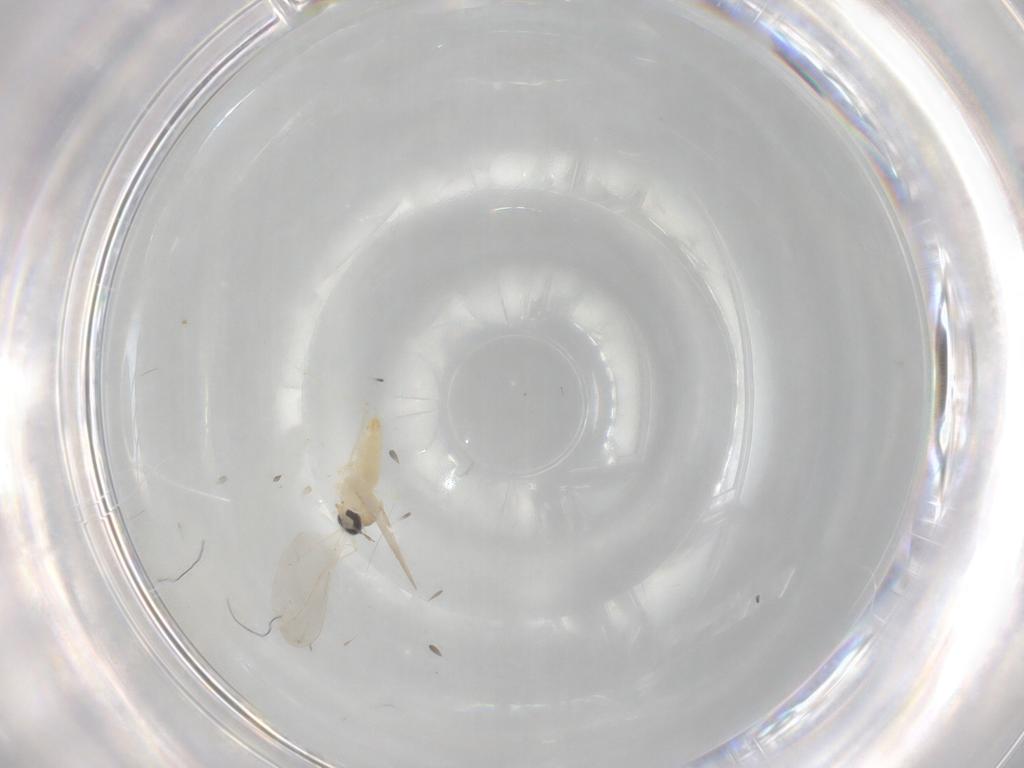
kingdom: Animalia
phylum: Arthropoda
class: Insecta
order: Diptera
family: Cecidomyiidae
